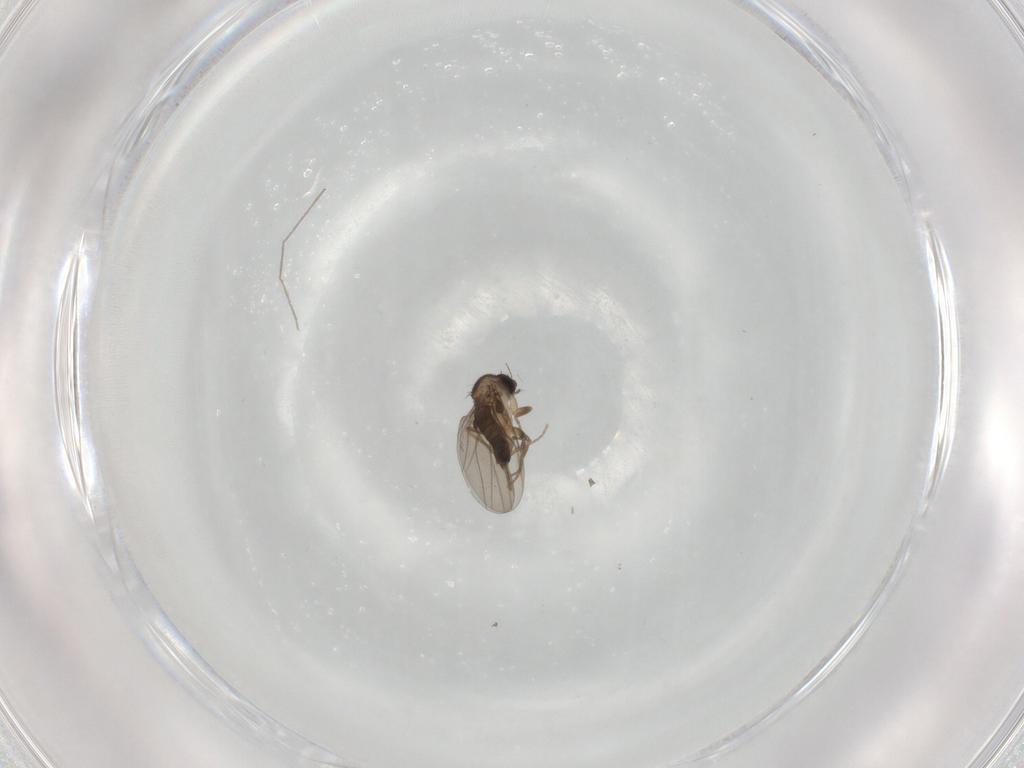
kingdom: Animalia
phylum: Arthropoda
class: Insecta
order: Diptera
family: Phoridae
